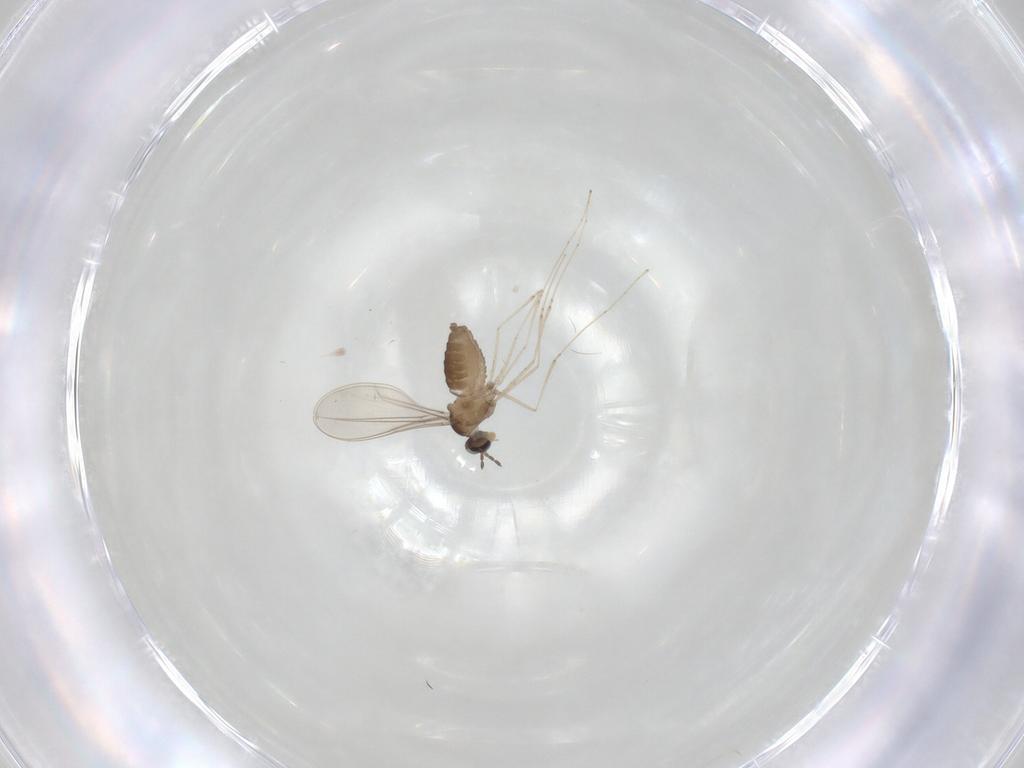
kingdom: Animalia
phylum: Arthropoda
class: Insecta
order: Diptera
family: Cecidomyiidae
